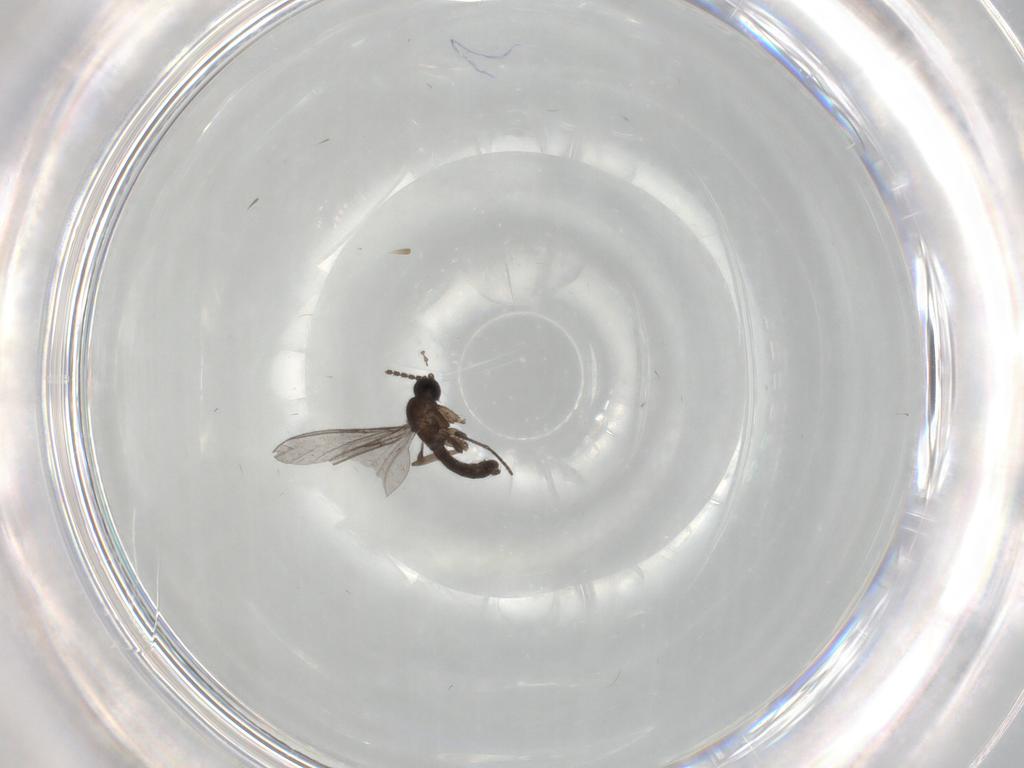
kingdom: Animalia
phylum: Arthropoda
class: Insecta
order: Diptera
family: Cecidomyiidae
